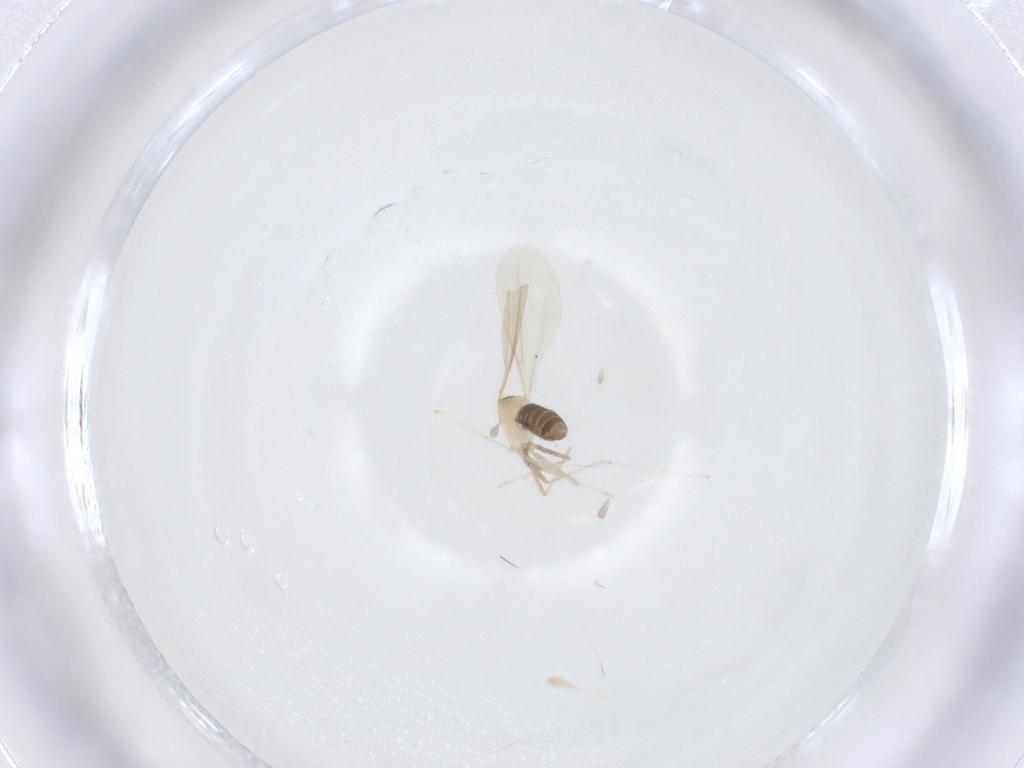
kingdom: Animalia
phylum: Arthropoda
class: Insecta
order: Diptera
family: Cecidomyiidae
